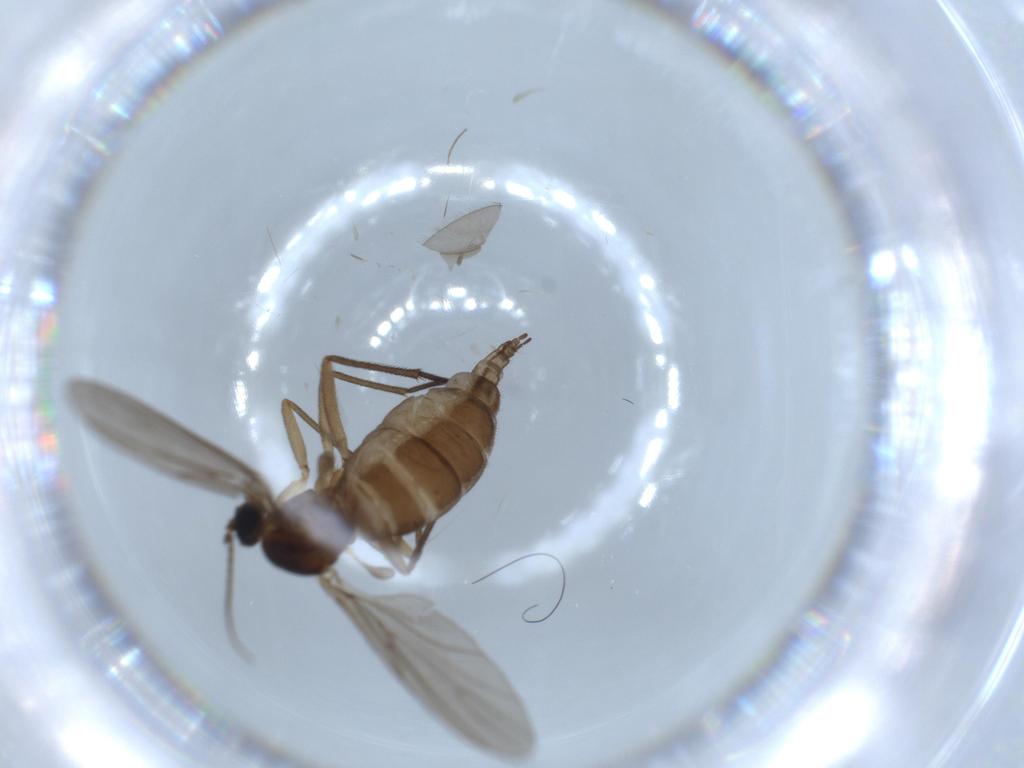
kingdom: Animalia
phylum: Arthropoda
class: Insecta
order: Diptera
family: Sciaridae
